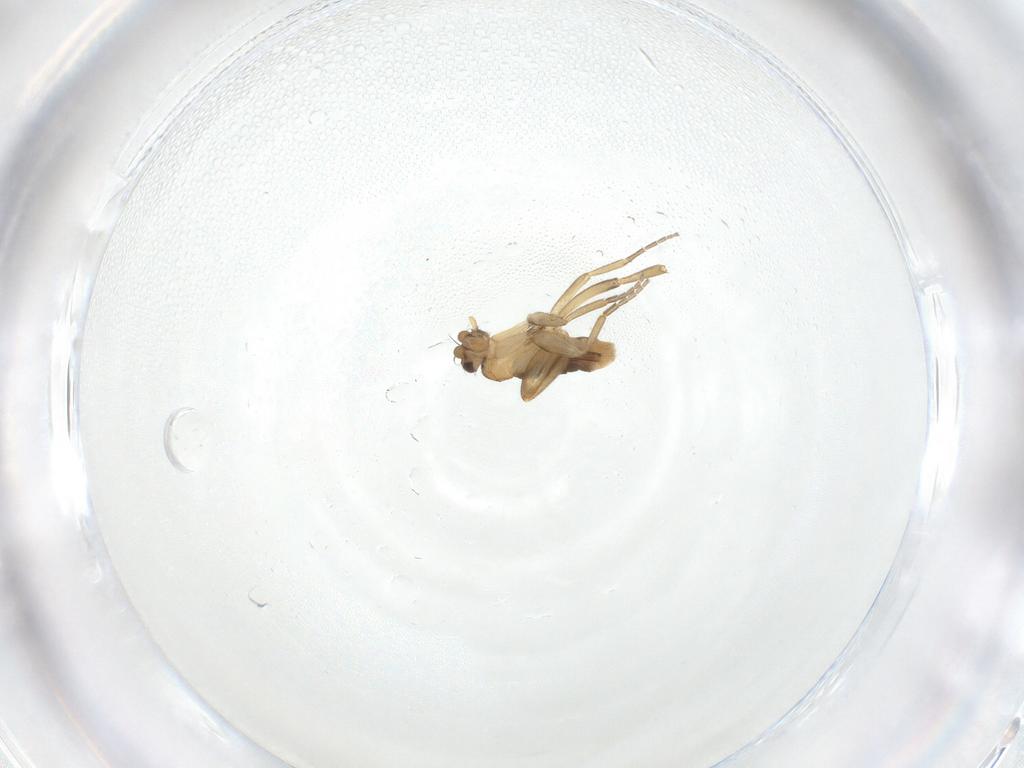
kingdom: Animalia
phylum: Arthropoda
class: Insecta
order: Diptera
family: Phoridae
